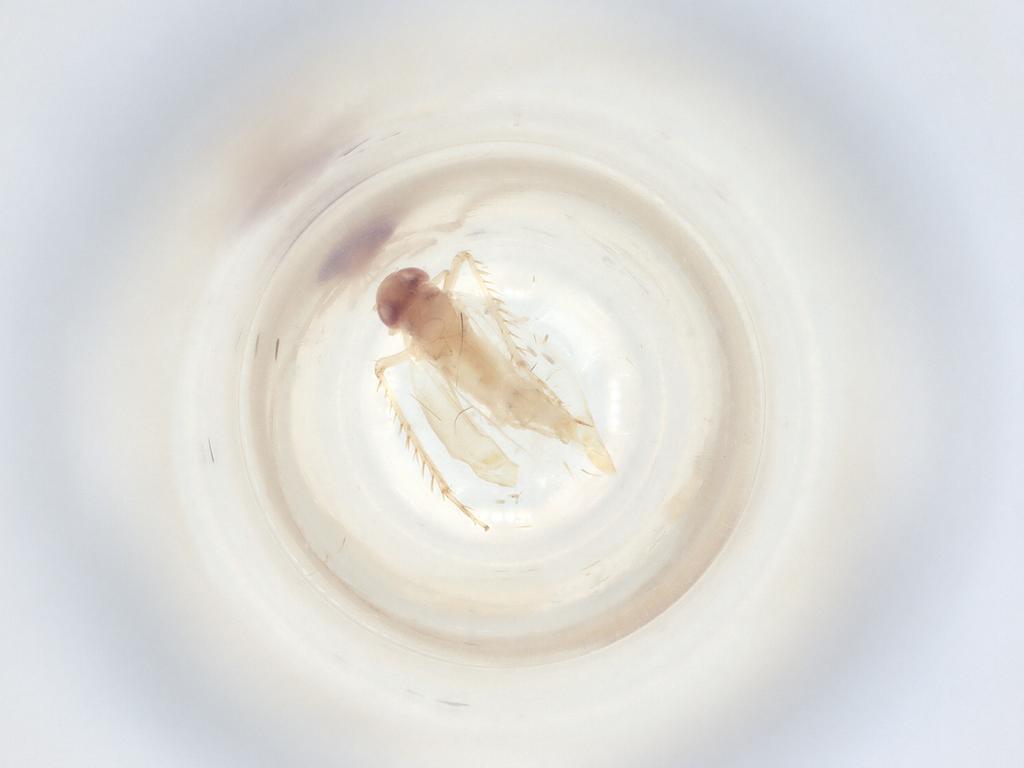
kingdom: Animalia
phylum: Arthropoda
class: Insecta
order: Hemiptera
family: Cicadellidae
